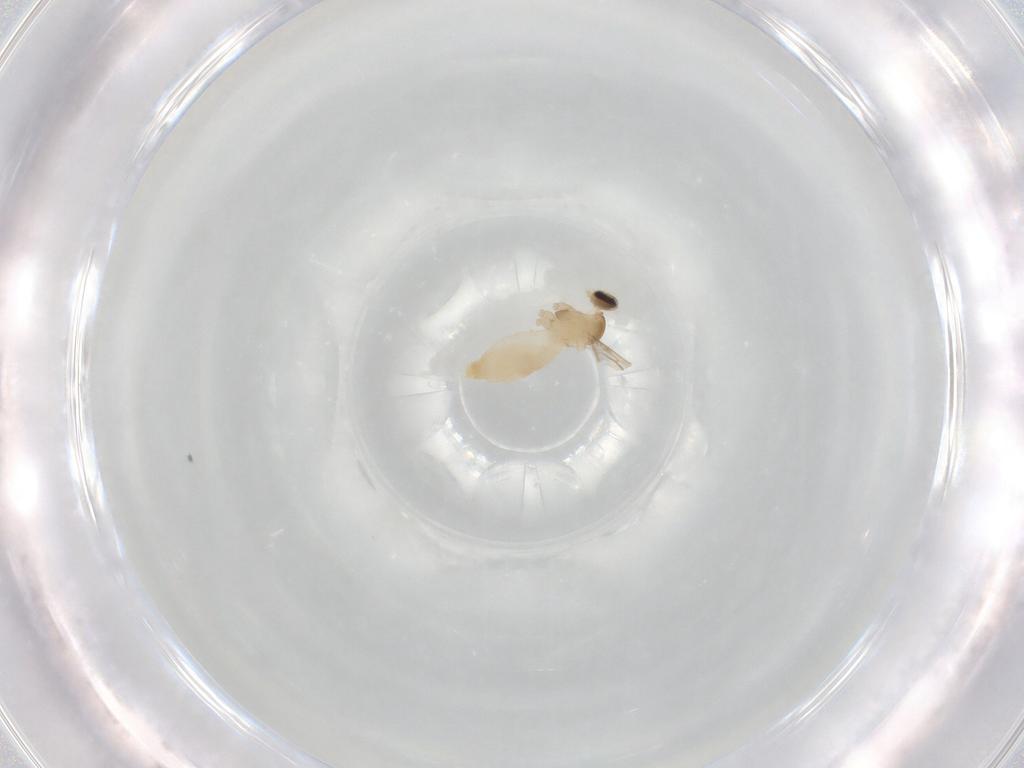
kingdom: Animalia
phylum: Arthropoda
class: Insecta
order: Diptera
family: Cecidomyiidae
